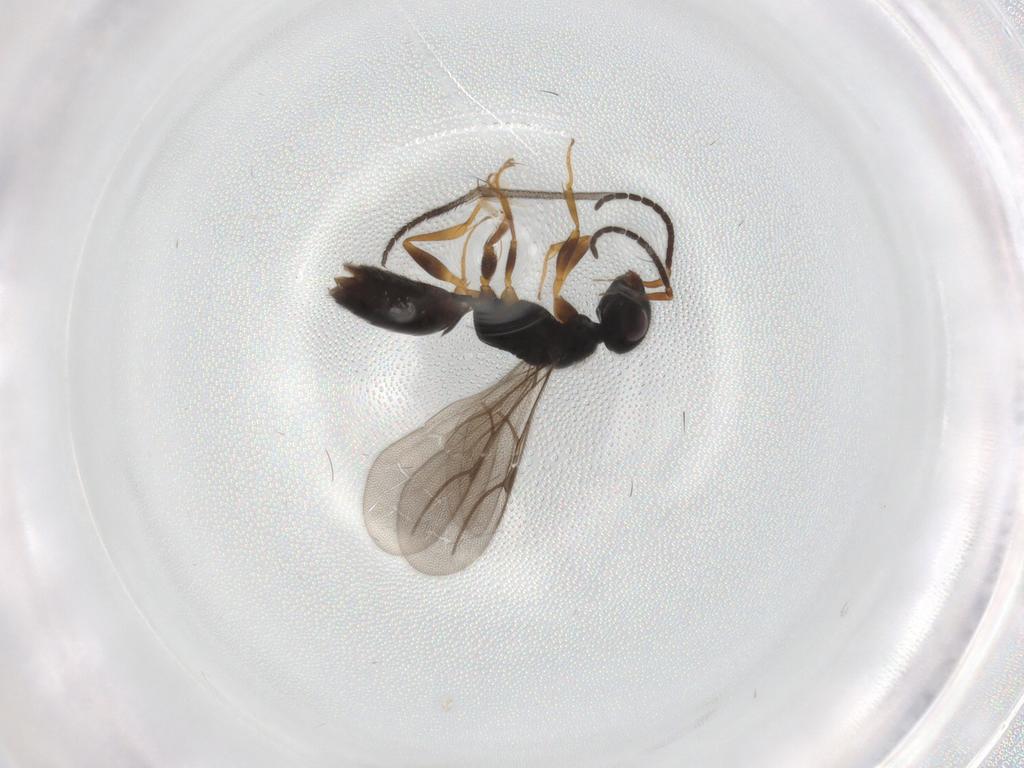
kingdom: Animalia
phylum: Arthropoda
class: Insecta
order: Hymenoptera
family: Bethylidae
